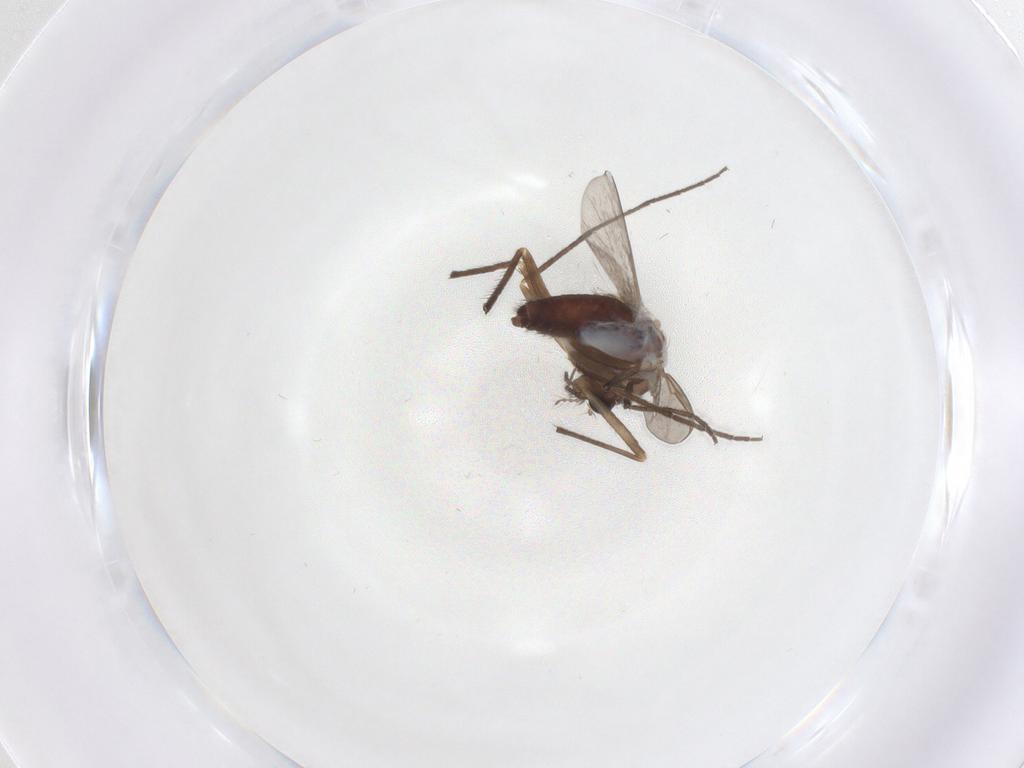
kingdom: Animalia
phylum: Arthropoda
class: Insecta
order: Diptera
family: Chironomidae
